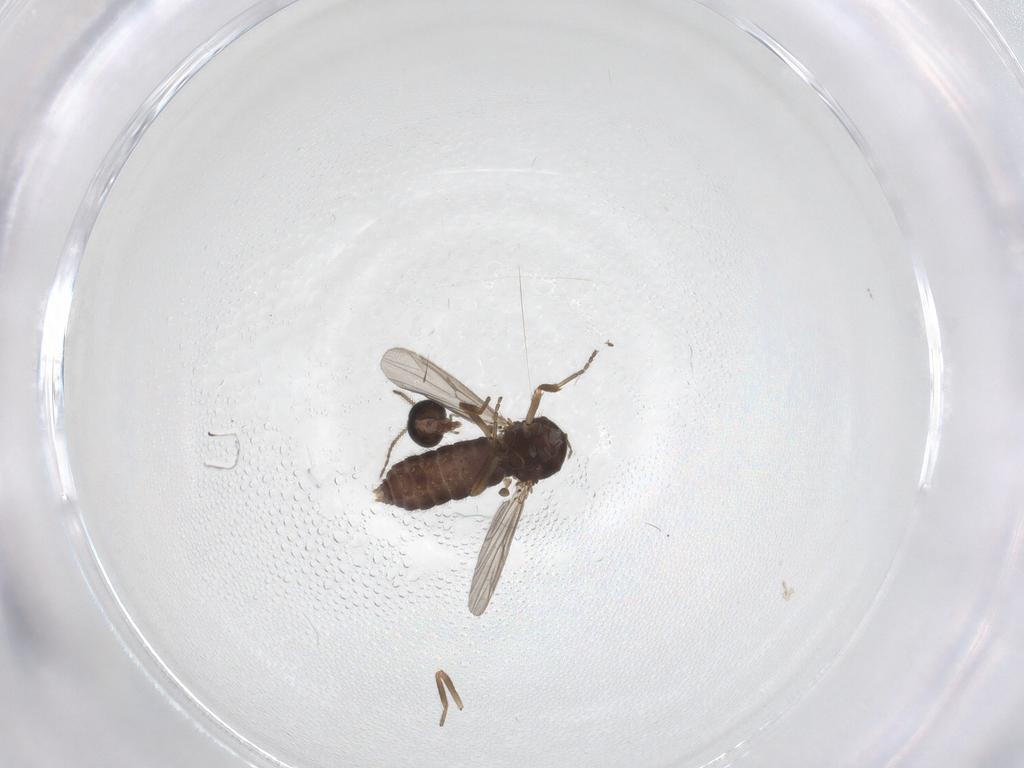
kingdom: Animalia
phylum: Arthropoda
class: Insecta
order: Diptera
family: Ceratopogonidae
